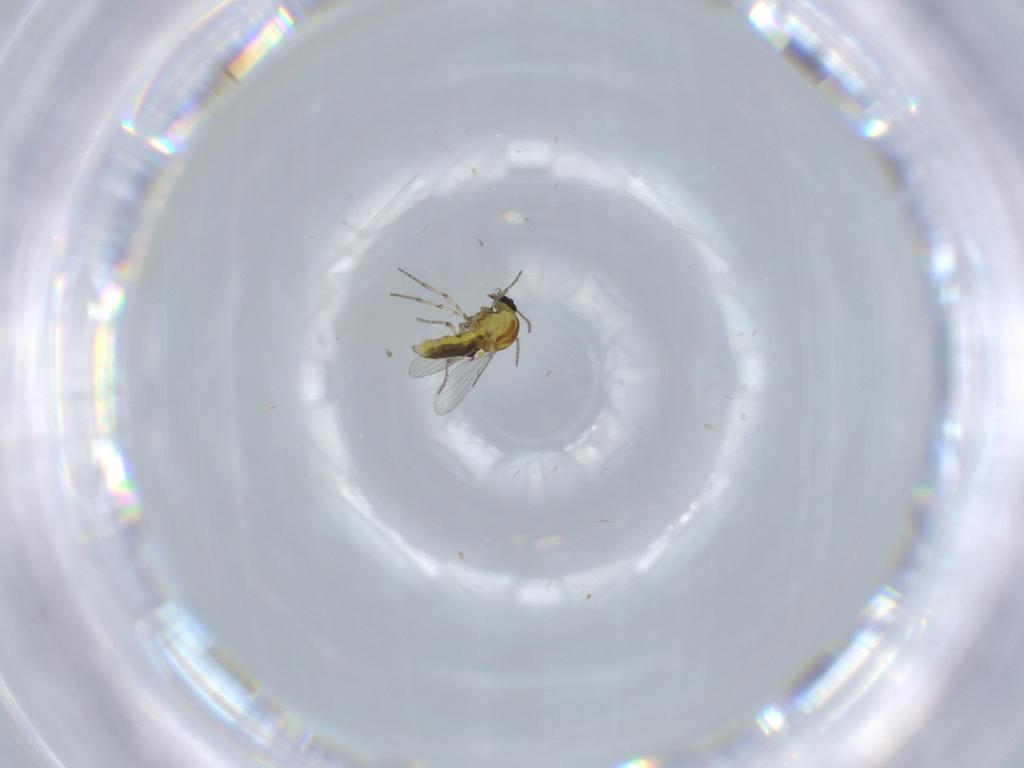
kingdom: Animalia
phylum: Arthropoda
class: Insecta
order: Diptera
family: Ceratopogonidae
